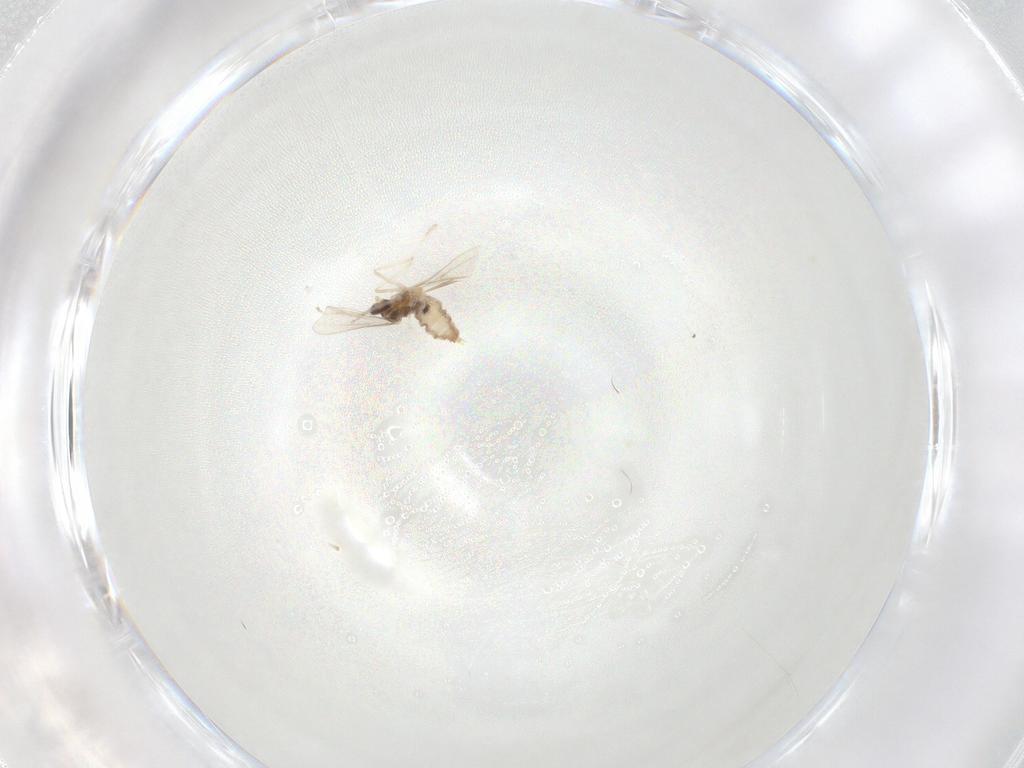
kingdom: Animalia
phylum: Arthropoda
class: Insecta
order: Diptera
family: Cecidomyiidae
